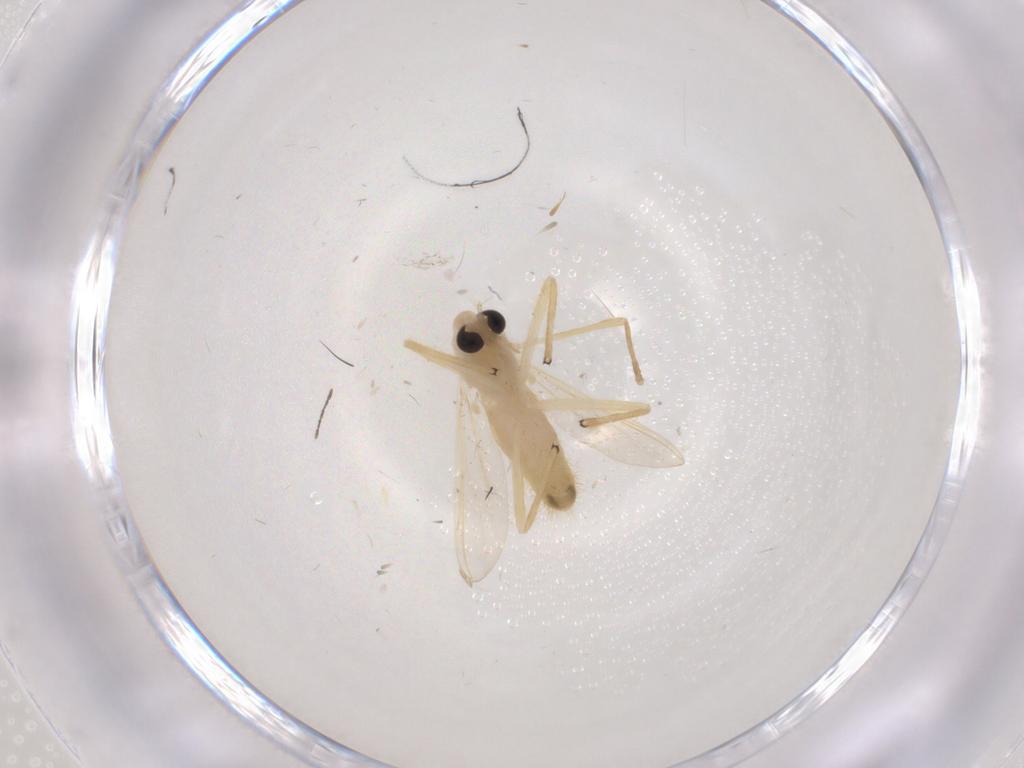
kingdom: Animalia
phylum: Arthropoda
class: Insecta
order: Diptera
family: Chironomidae
